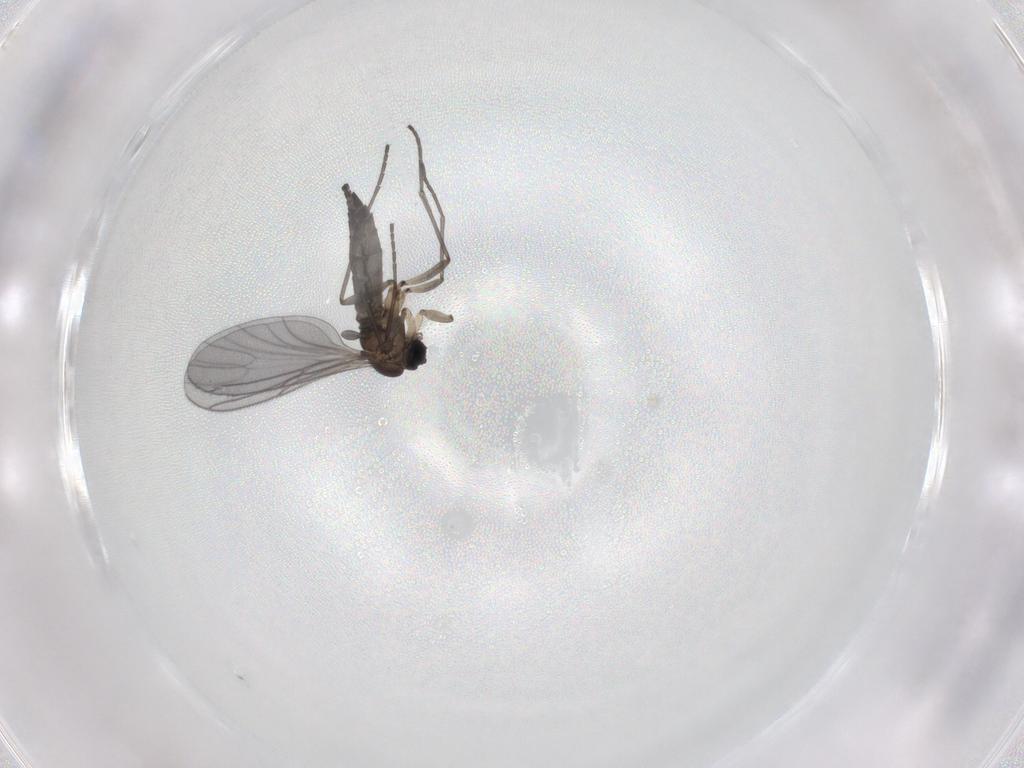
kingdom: Animalia
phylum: Arthropoda
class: Insecta
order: Diptera
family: Sciaridae
